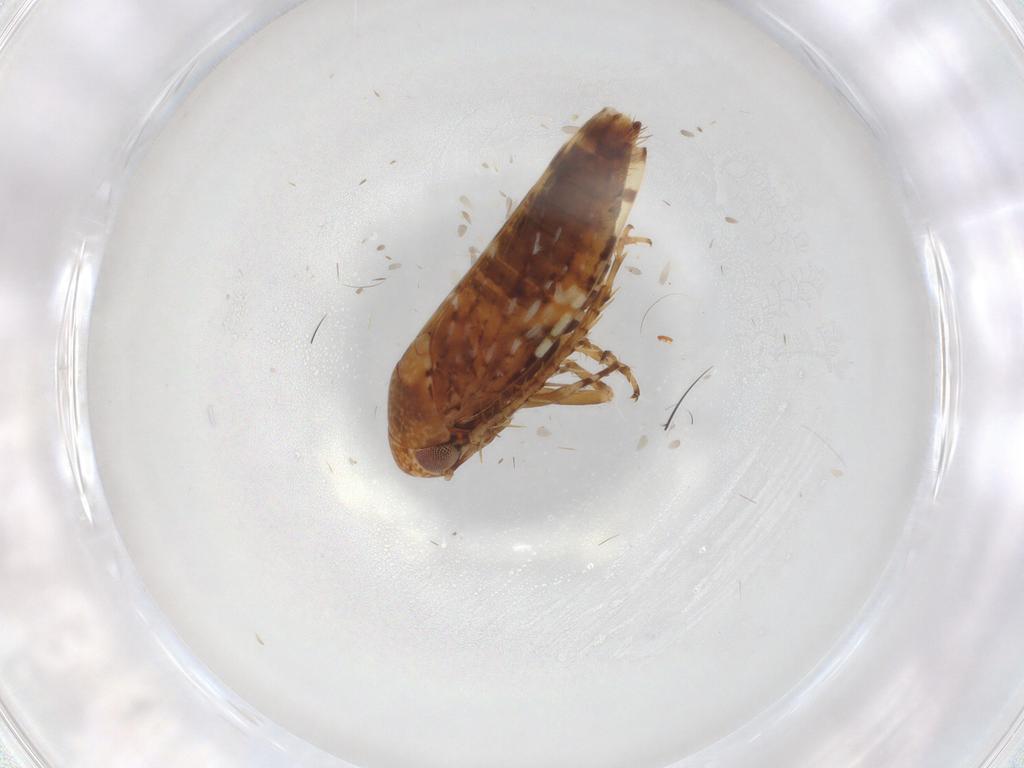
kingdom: Animalia
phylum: Arthropoda
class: Insecta
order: Hemiptera
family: Cicadellidae
